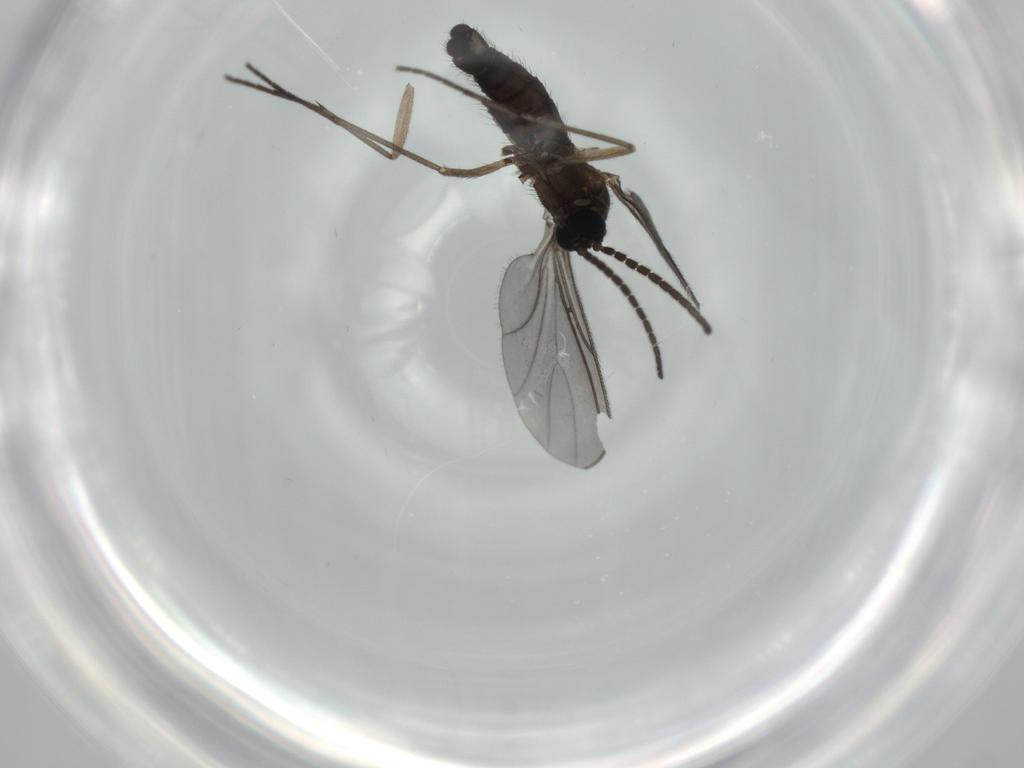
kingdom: Animalia
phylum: Arthropoda
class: Insecta
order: Diptera
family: Sciaridae
